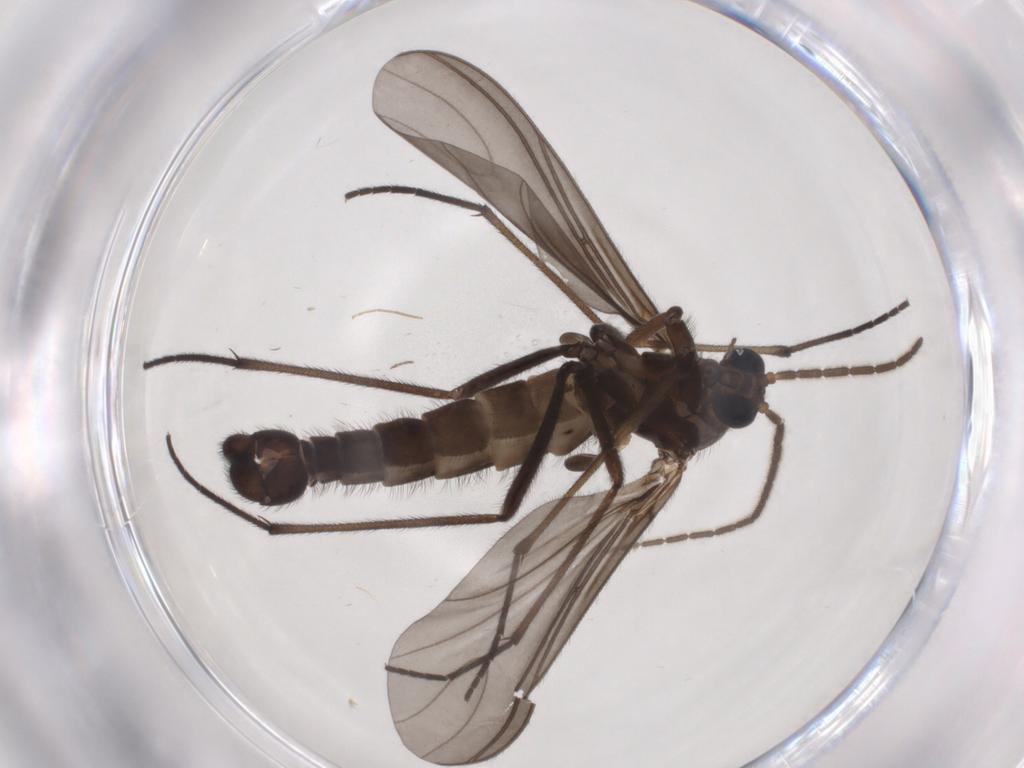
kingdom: Animalia
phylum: Arthropoda
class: Insecta
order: Diptera
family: Sciaridae
